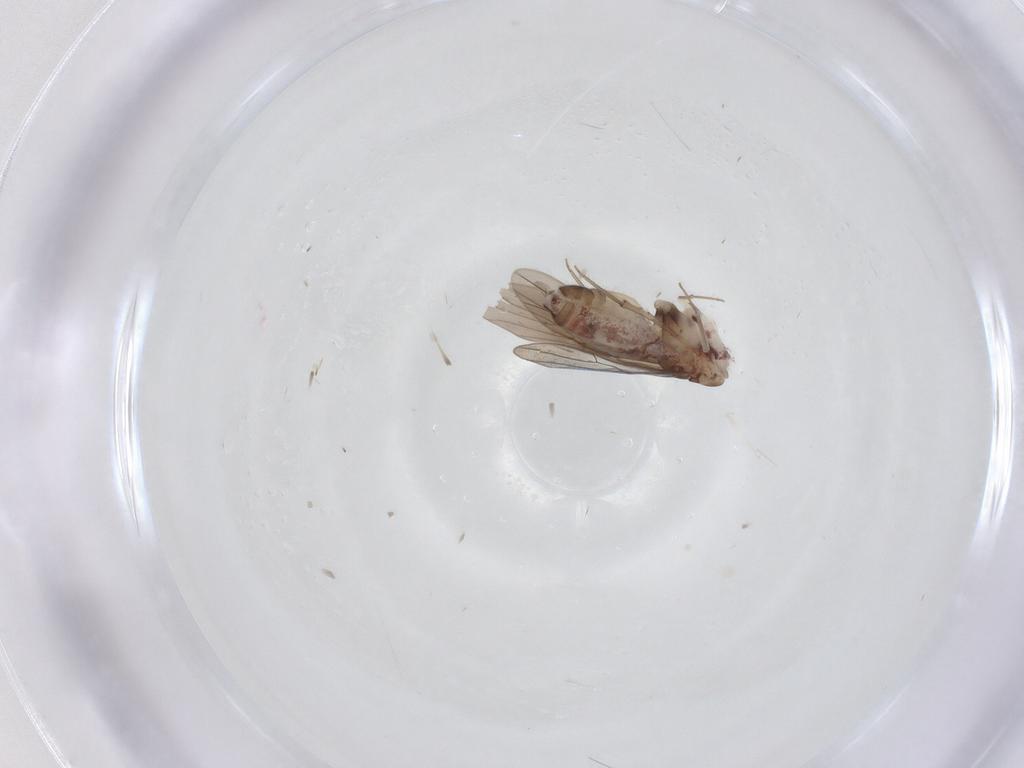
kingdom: Animalia
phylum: Arthropoda
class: Insecta
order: Psocodea
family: Amphientomidae
